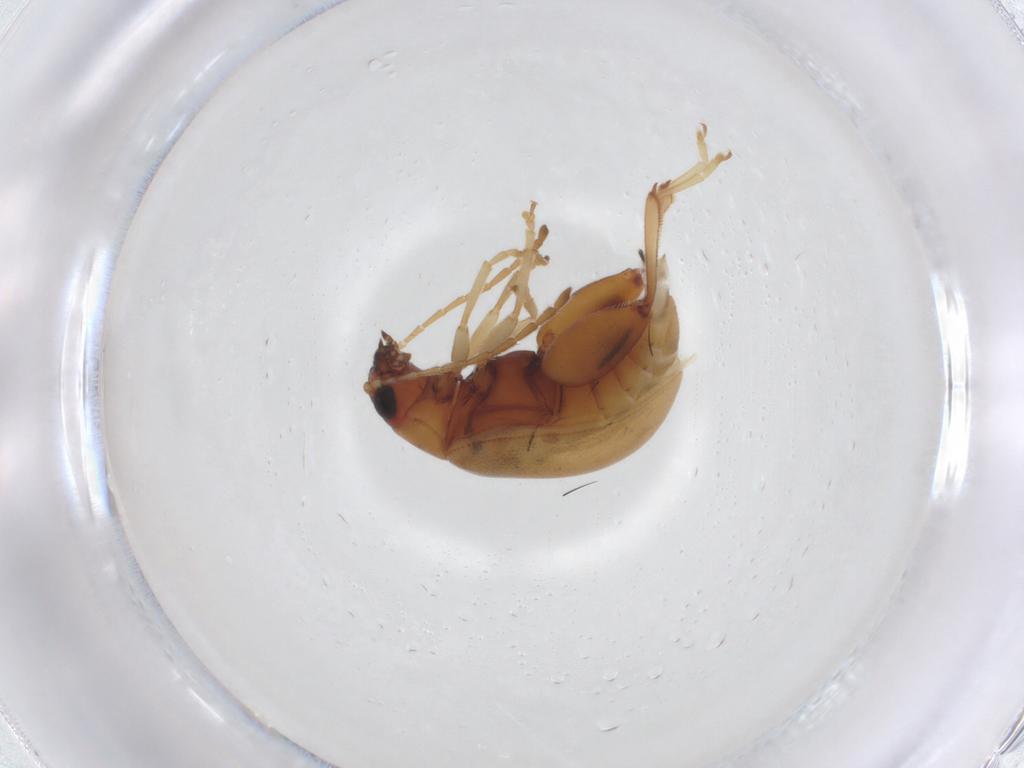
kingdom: Animalia
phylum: Arthropoda
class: Insecta
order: Coleoptera
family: Chrysomelidae
